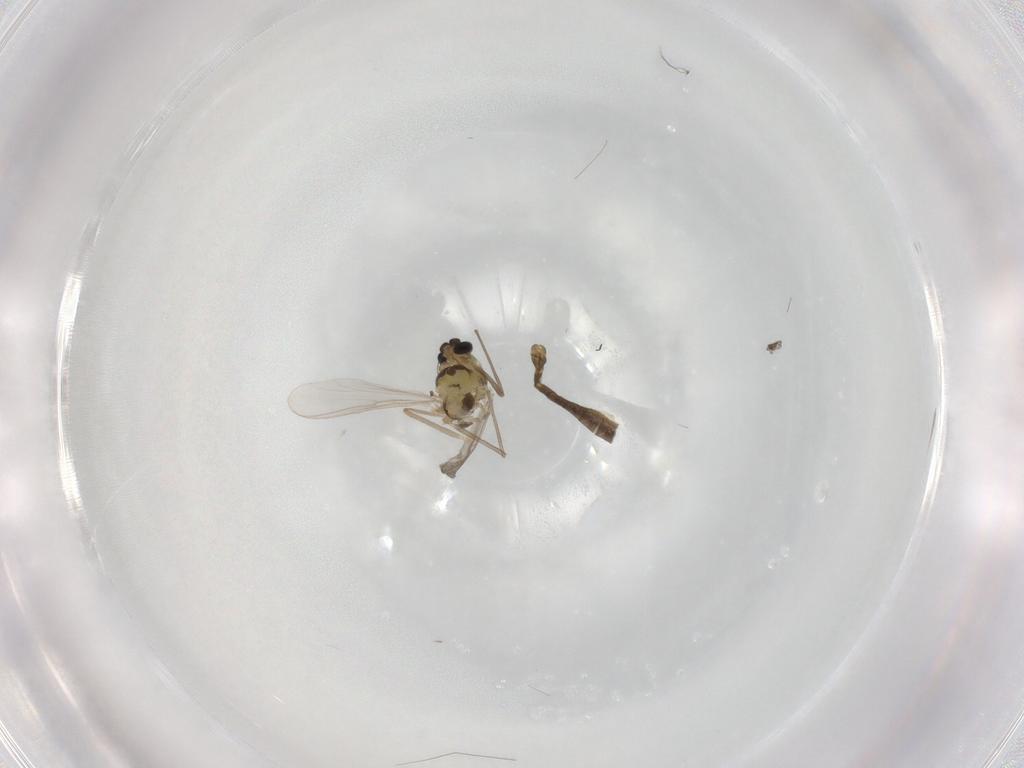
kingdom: Animalia
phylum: Arthropoda
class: Insecta
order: Diptera
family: Chironomidae
